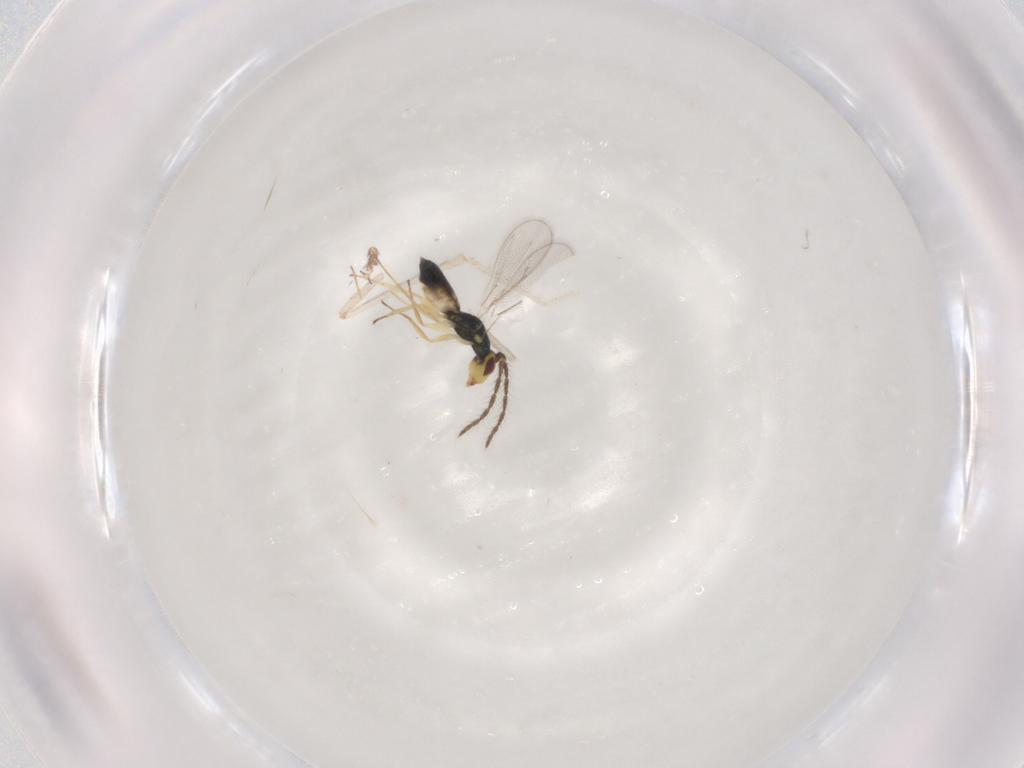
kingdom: Animalia
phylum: Arthropoda
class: Insecta
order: Hymenoptera
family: Eulophidae
